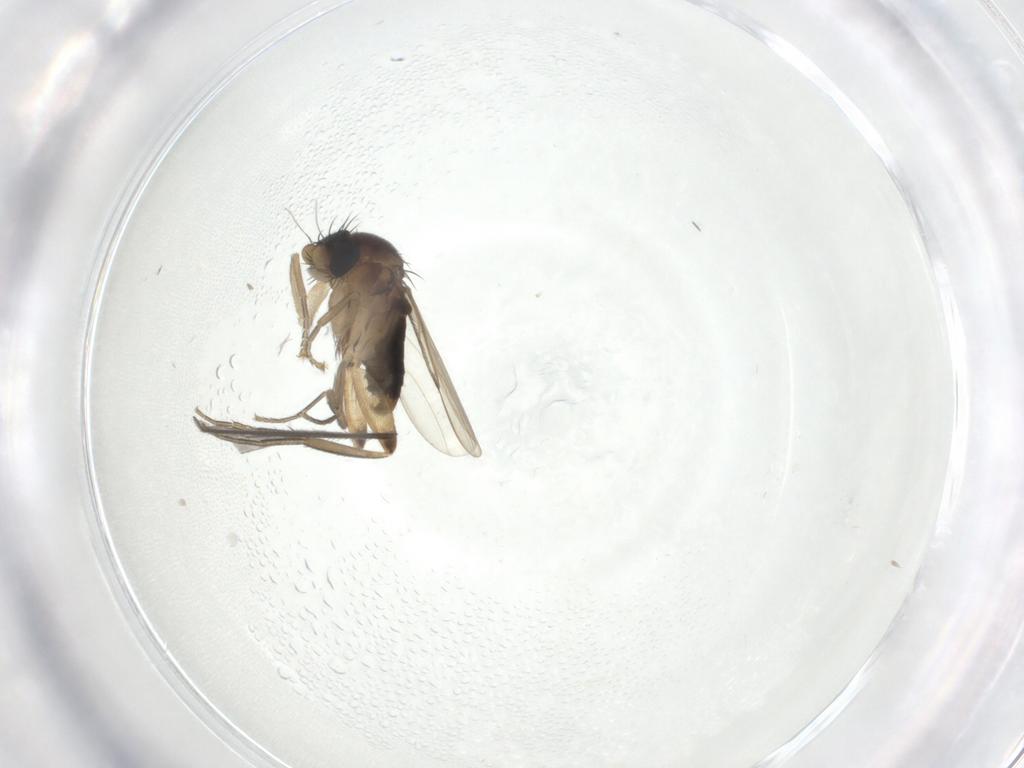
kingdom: Animalia
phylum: Arthropoda
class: Insecta
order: Diptera
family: Phoridae
